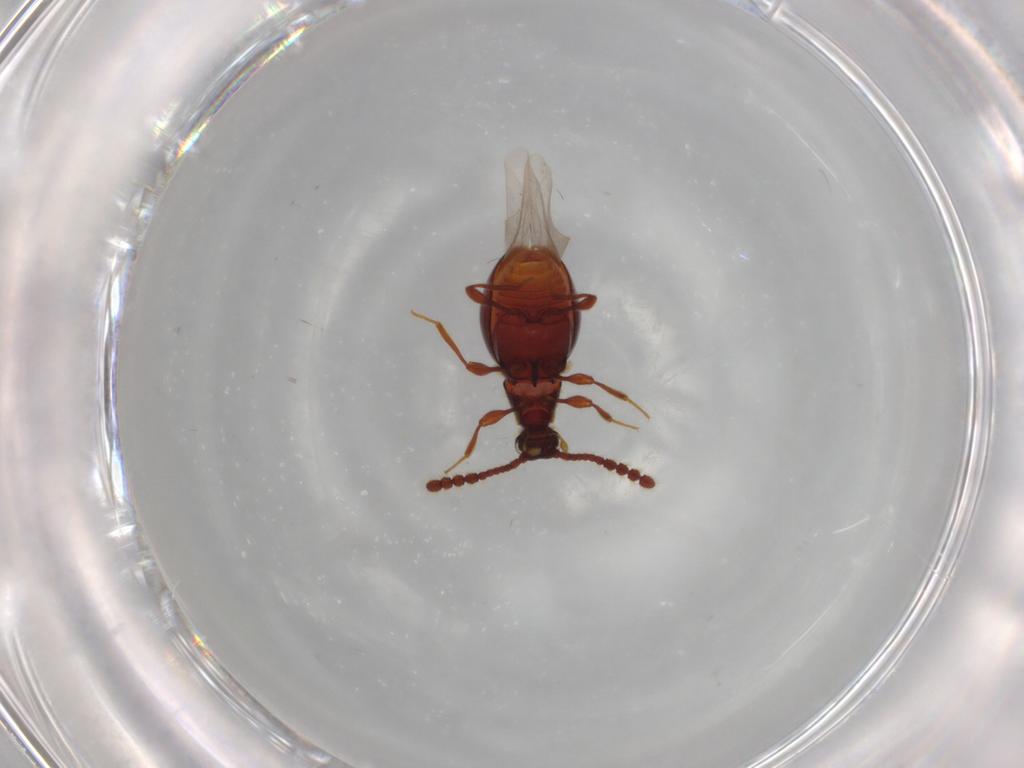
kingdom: Animalia
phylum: Arthropoda
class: Insecta
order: Coleoptera
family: Staphylinidae
